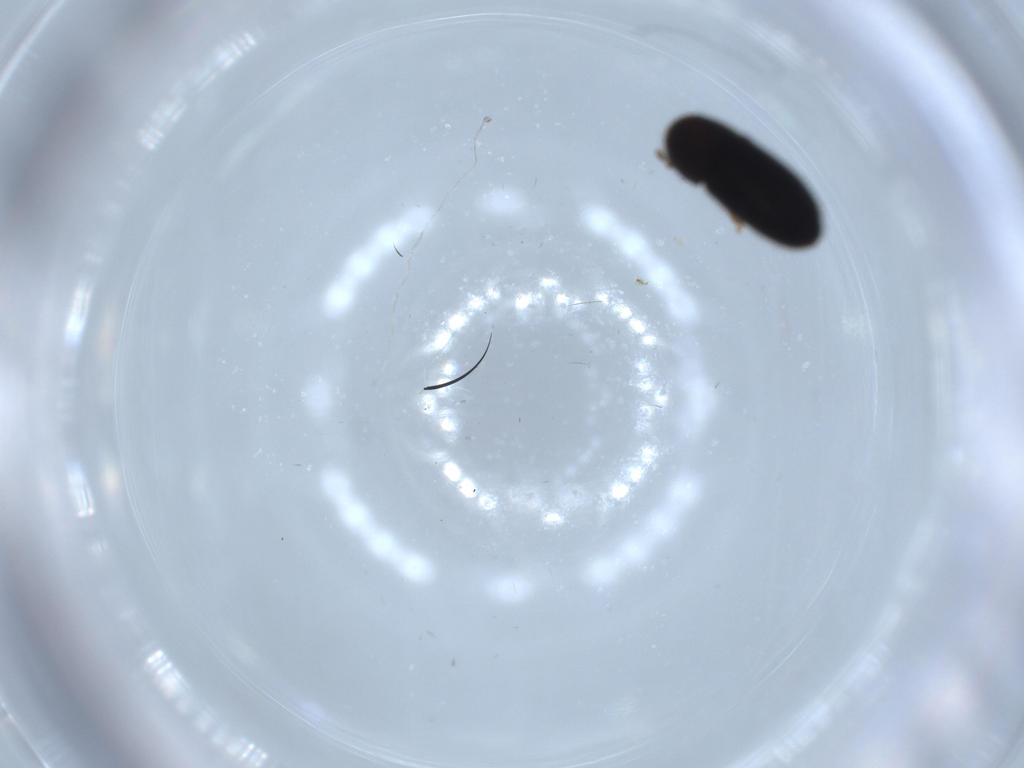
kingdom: Animalia
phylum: Arthropoda
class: Insecta
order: Coleoptera
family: Curculionidae
